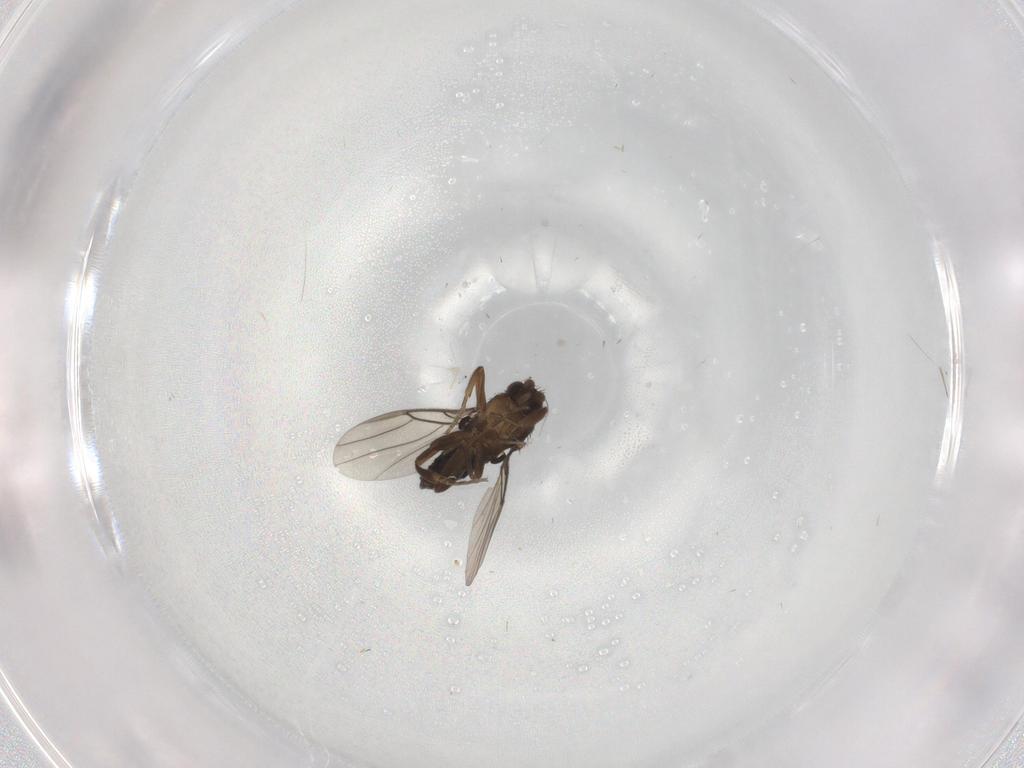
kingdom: Animalia
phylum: Arthropoda
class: Insecta
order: Diptera
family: Phoridae
